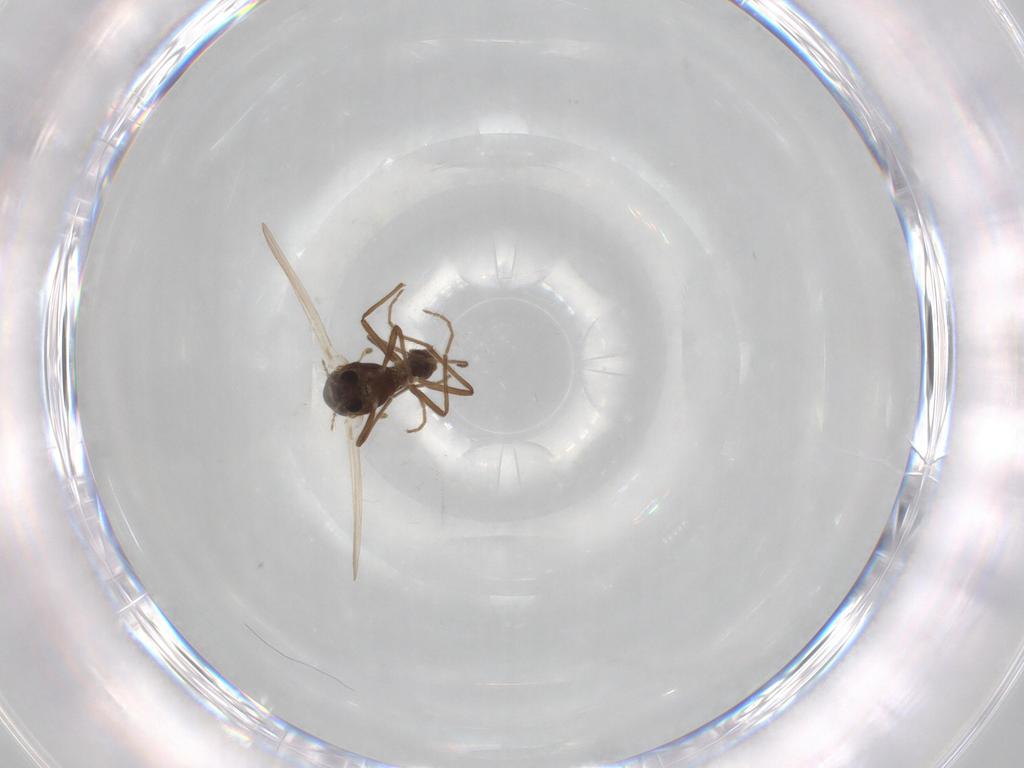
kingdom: Animalia
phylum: Arthropoda
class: Insecta
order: Diptera
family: Chironomidae
